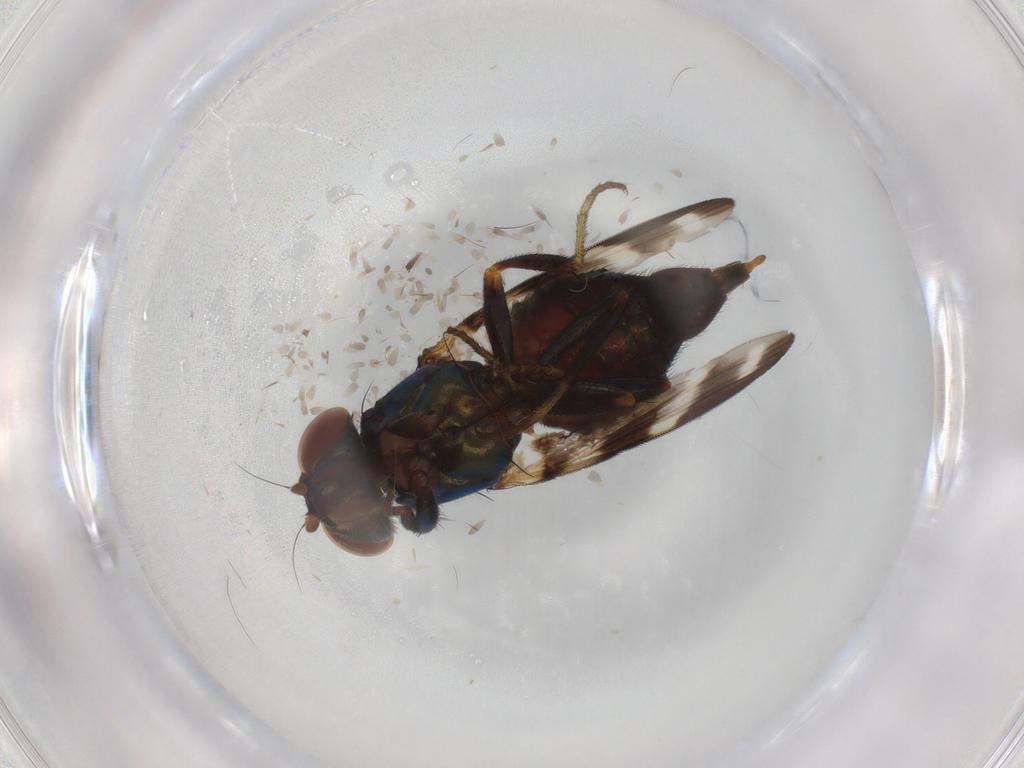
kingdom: Animalia
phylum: Arthropoda
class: Insecta
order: Diptera
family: Ulidiidae
